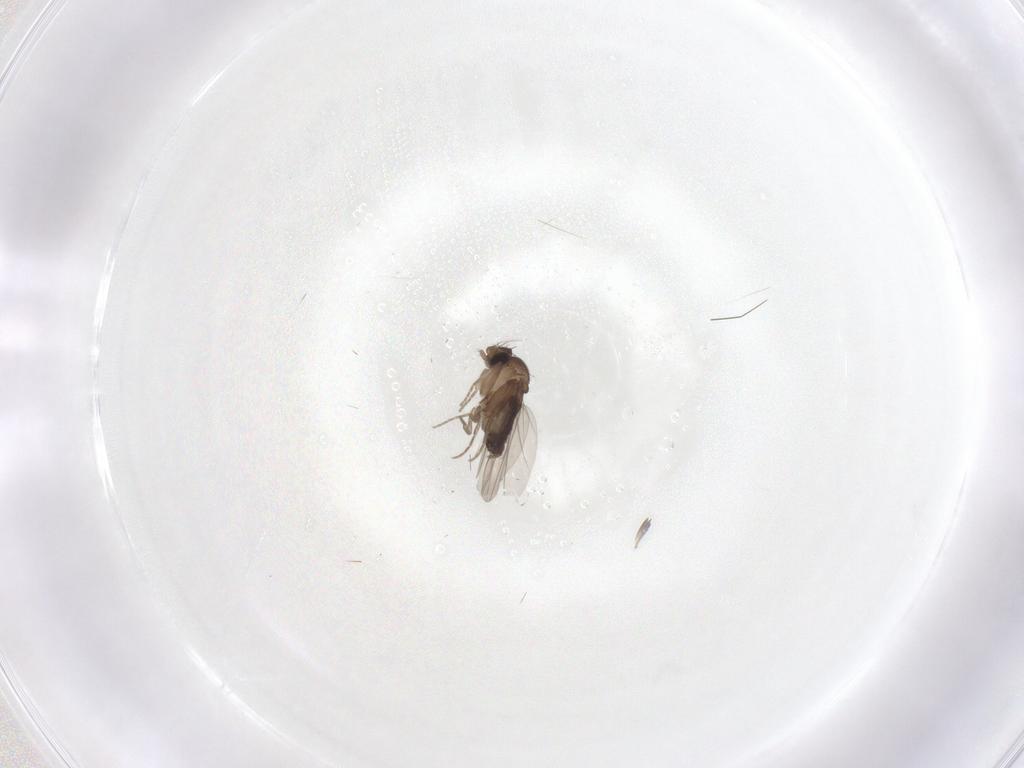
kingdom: Animalia
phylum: Arthropoda
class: Insecta
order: Diptera
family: Phoridae
